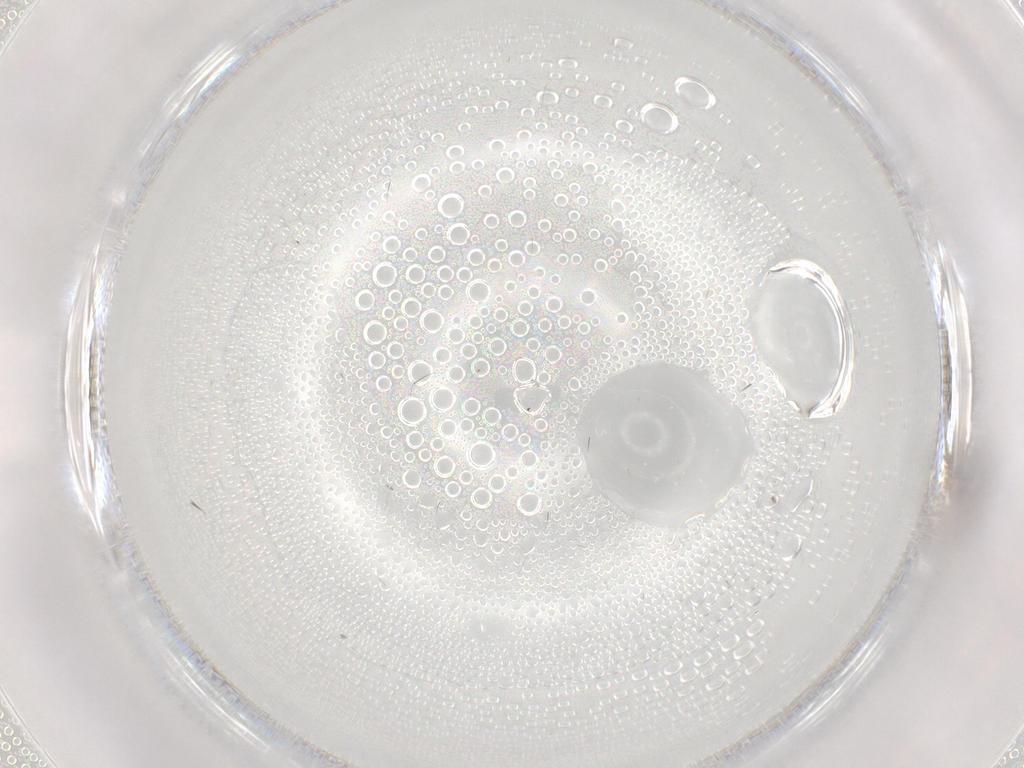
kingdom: Animalia
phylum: Arthropoda
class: Insecta
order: Hymenoptera
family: Formicidae
